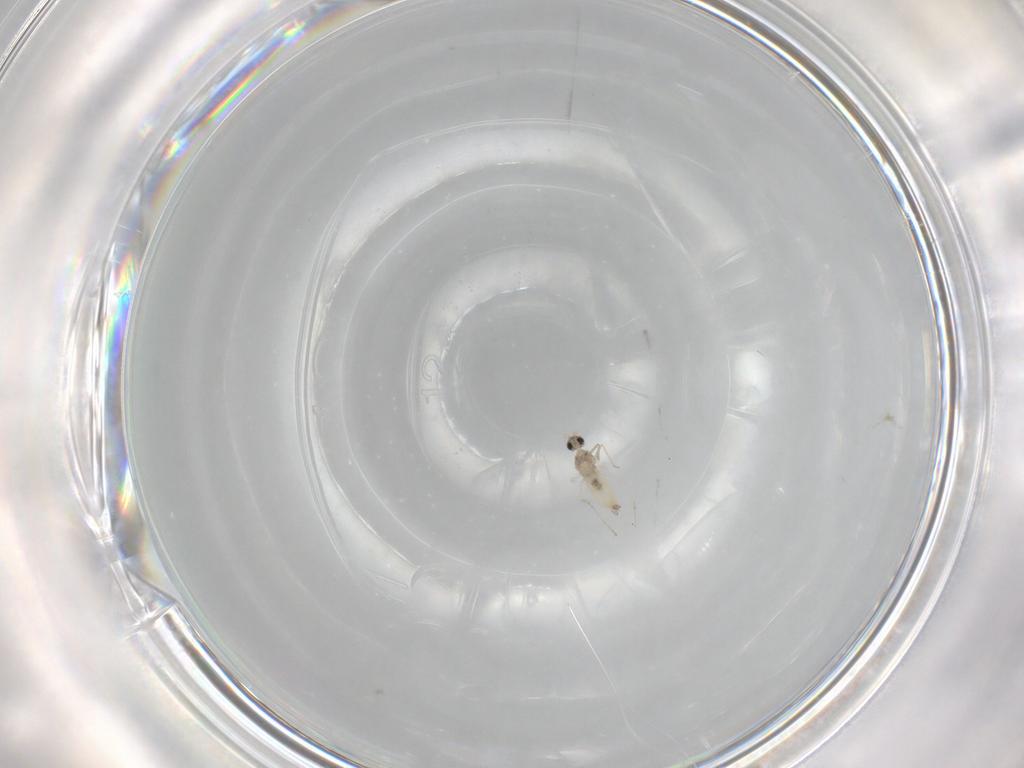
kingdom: Animalia
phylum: Arthropoda
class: Insecta
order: Diptera
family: Cecidomyiidae
